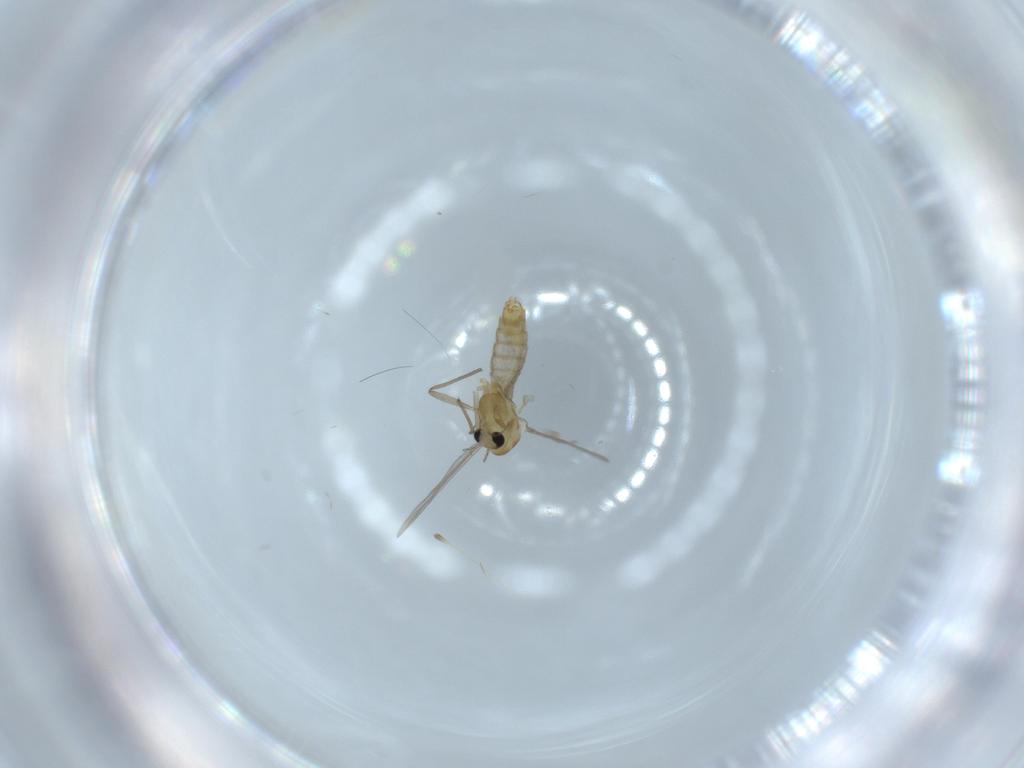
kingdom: Animalia
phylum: Arthropoda
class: Insecta
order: Diptera
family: Chironomidae
